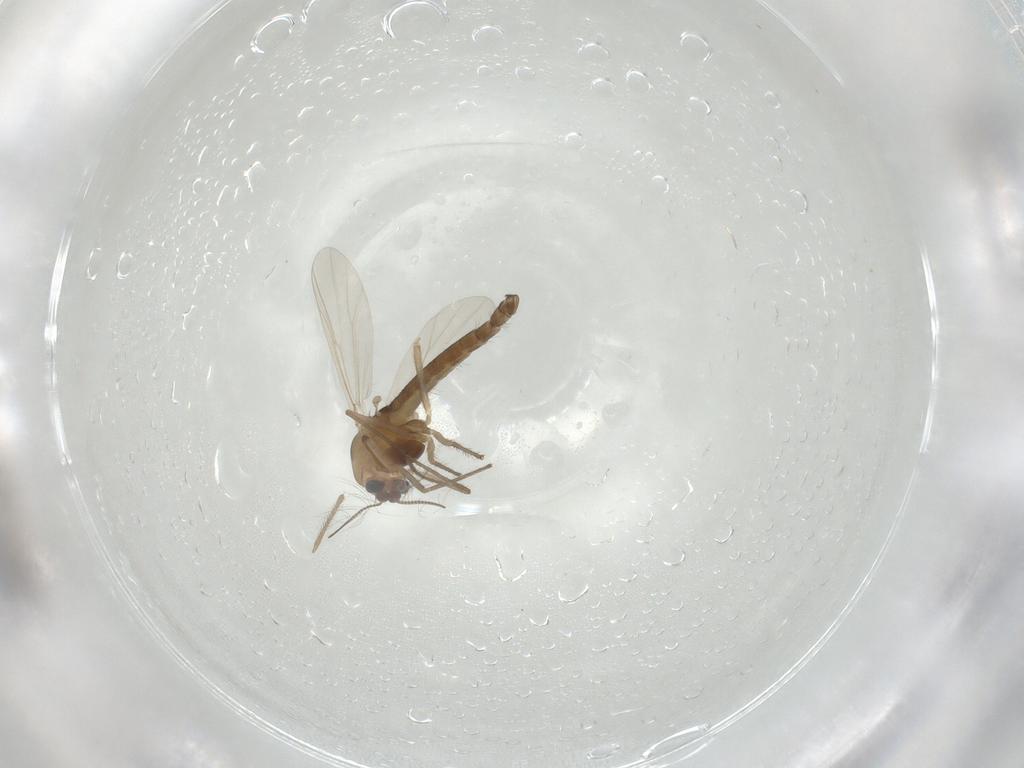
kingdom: Animalia
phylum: Arthropoda
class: Insecta
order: Diptera
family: Chironomidae
